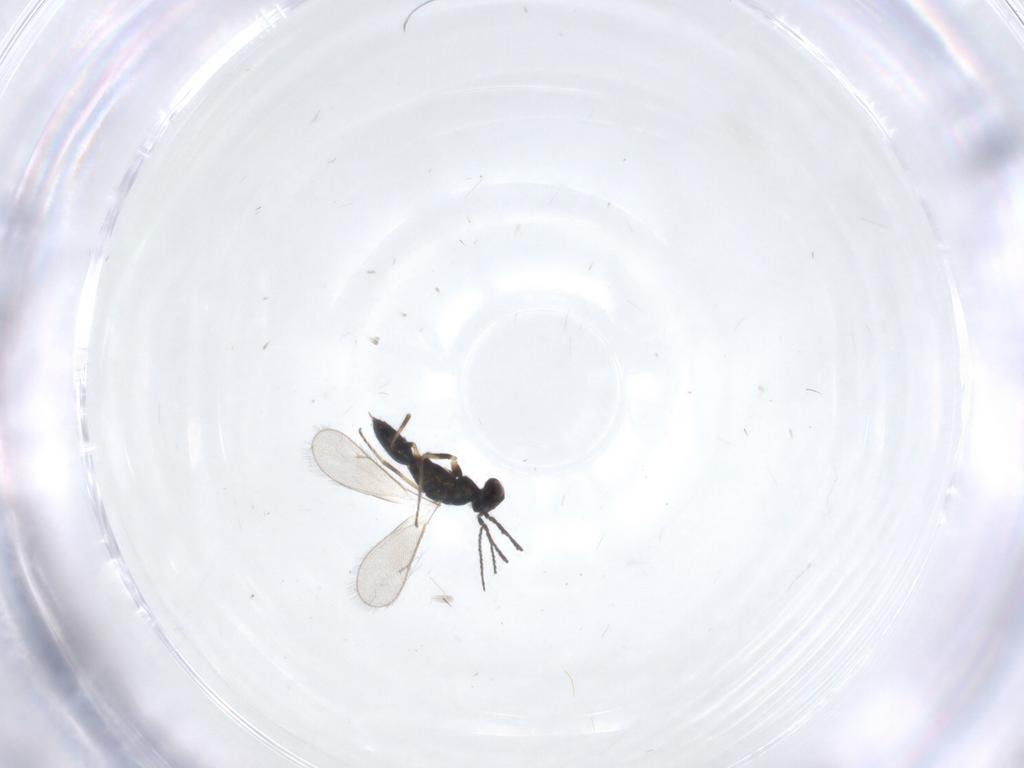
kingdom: Animalia
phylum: Arthropoda
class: Insecta
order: Hymenoptera
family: Eulophidae
